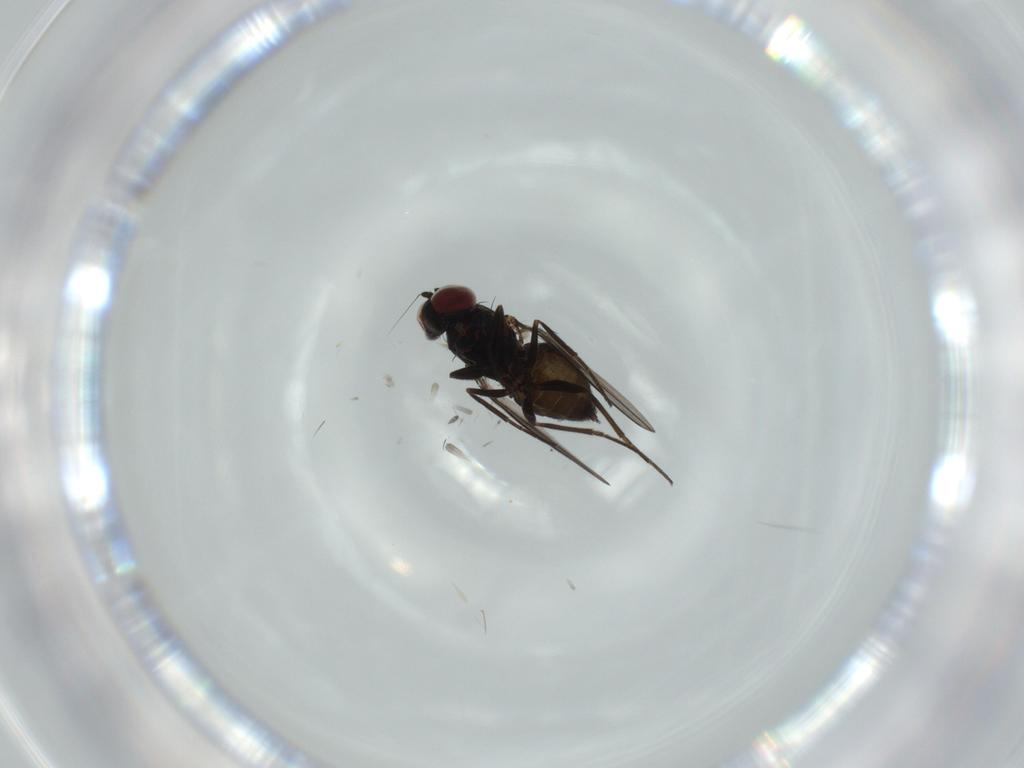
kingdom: Animalia
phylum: Arthropoda
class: Insecta
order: Diptera
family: Dolichopodidae
